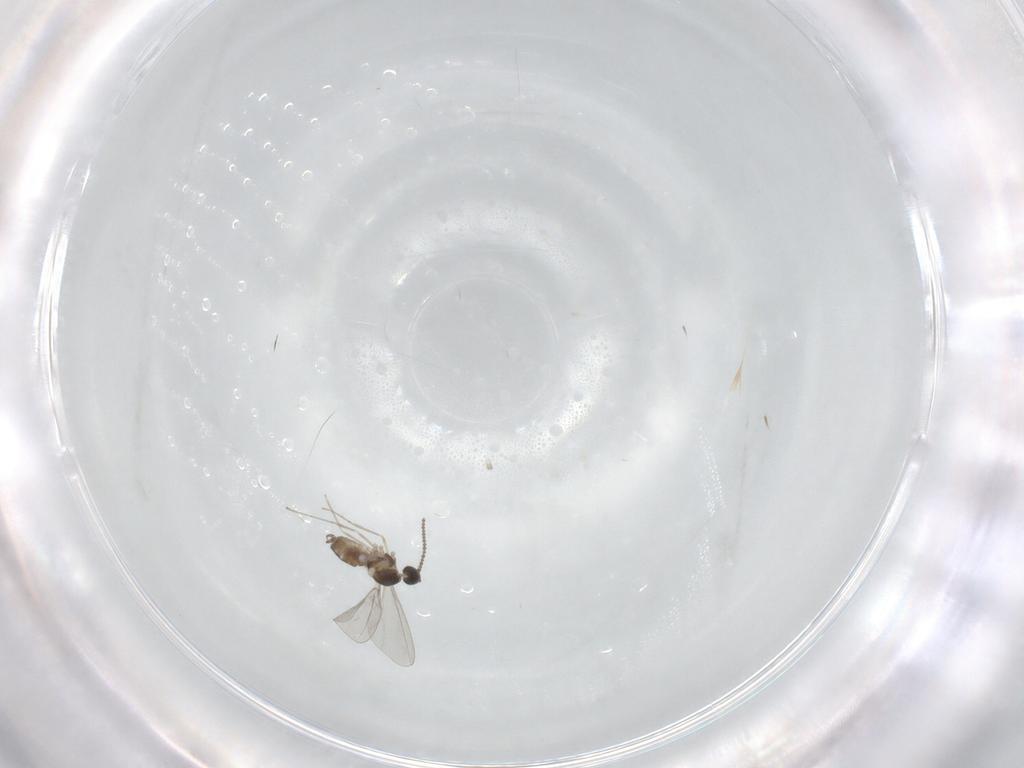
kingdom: Animalia
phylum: Arthropoda
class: Insecta
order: Diptera
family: Cecidomyiidae
